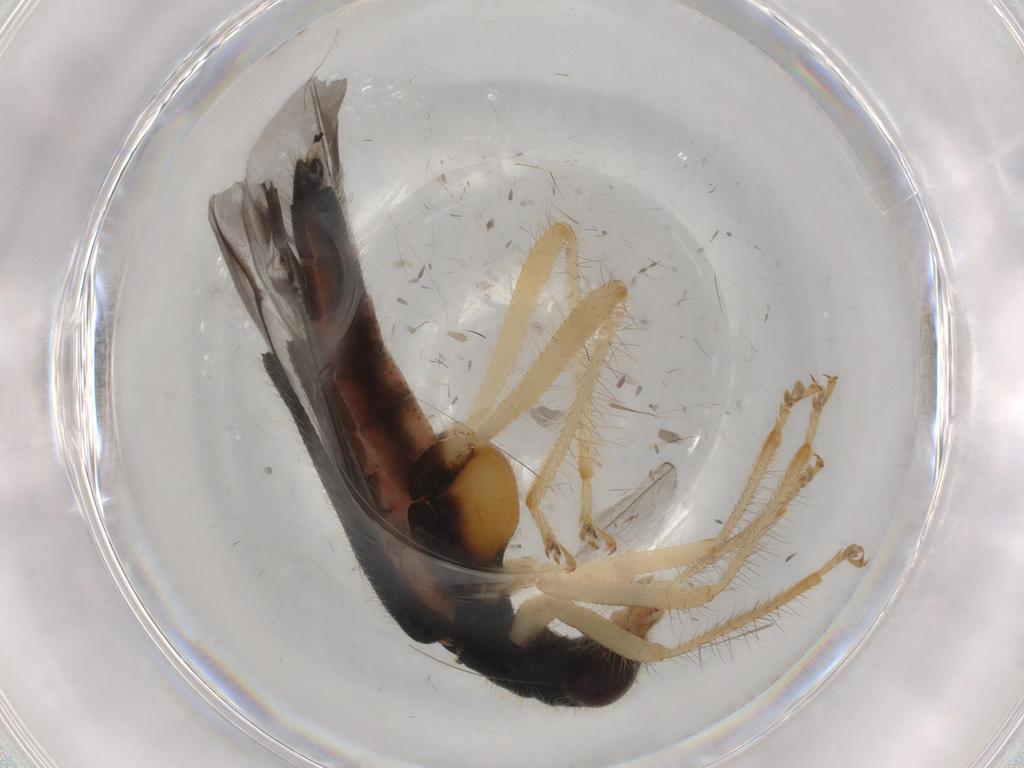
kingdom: Animalia
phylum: Arthropoda
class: Insecta
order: Coleoptera
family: Cleridae
